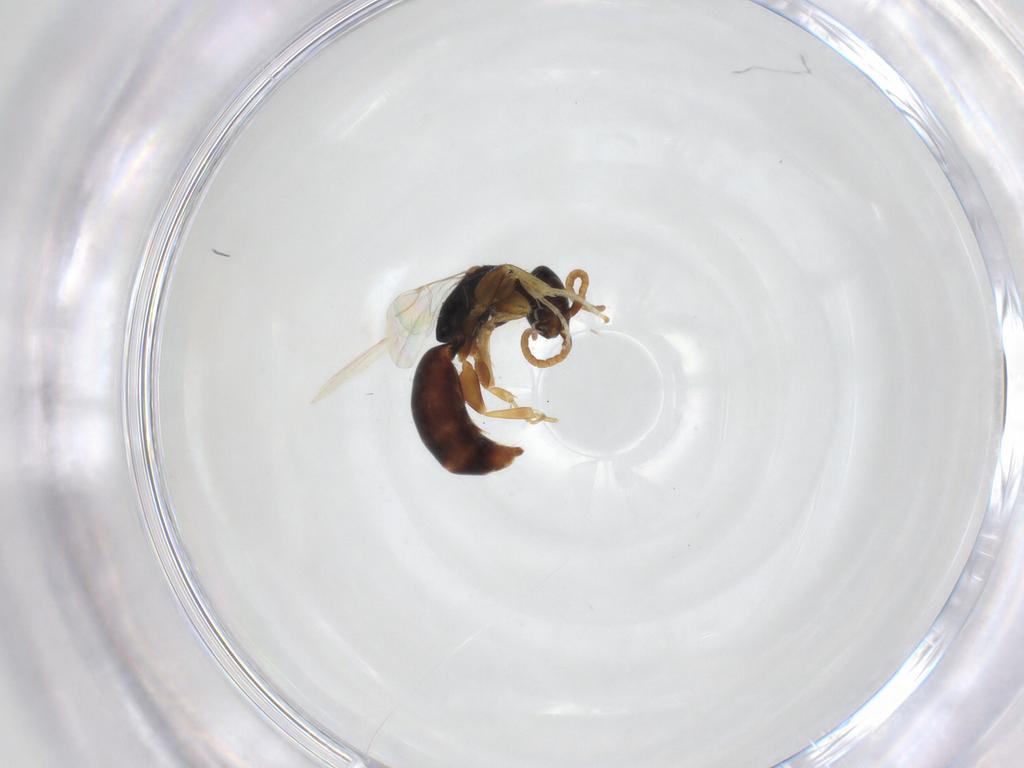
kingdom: Animalia
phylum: Arthropoda
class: Insecta
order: Hymenoptera
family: Bethylidae
